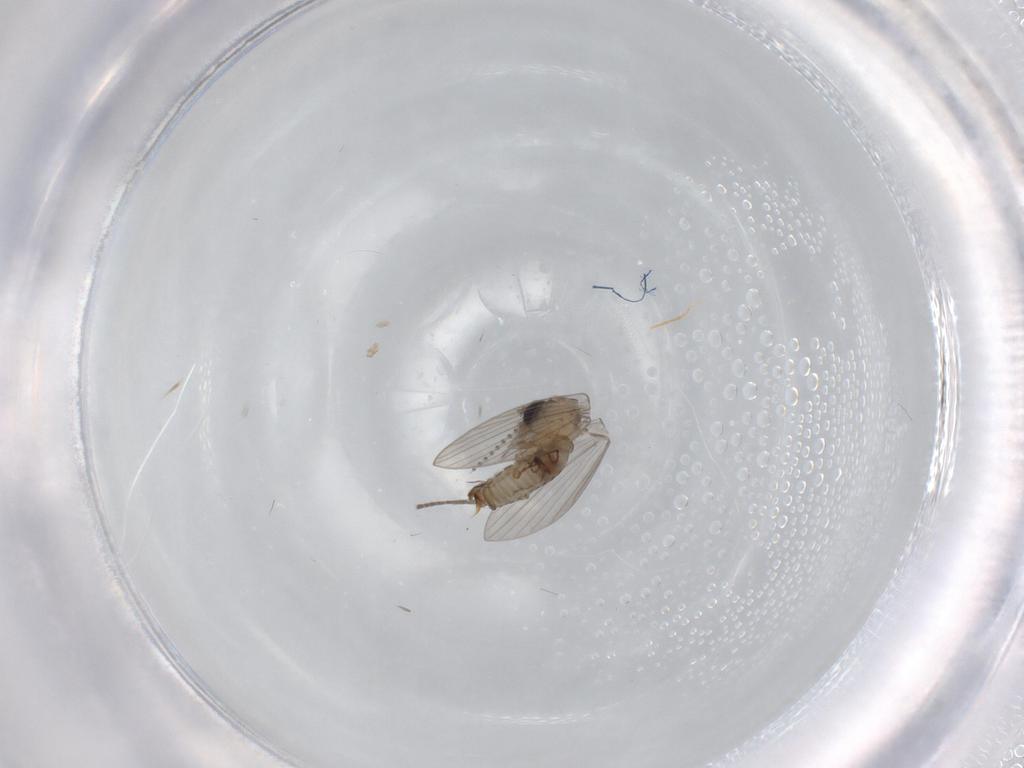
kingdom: Animalia
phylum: Arthropoda
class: Insecta
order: Diptera
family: Psychodidae
